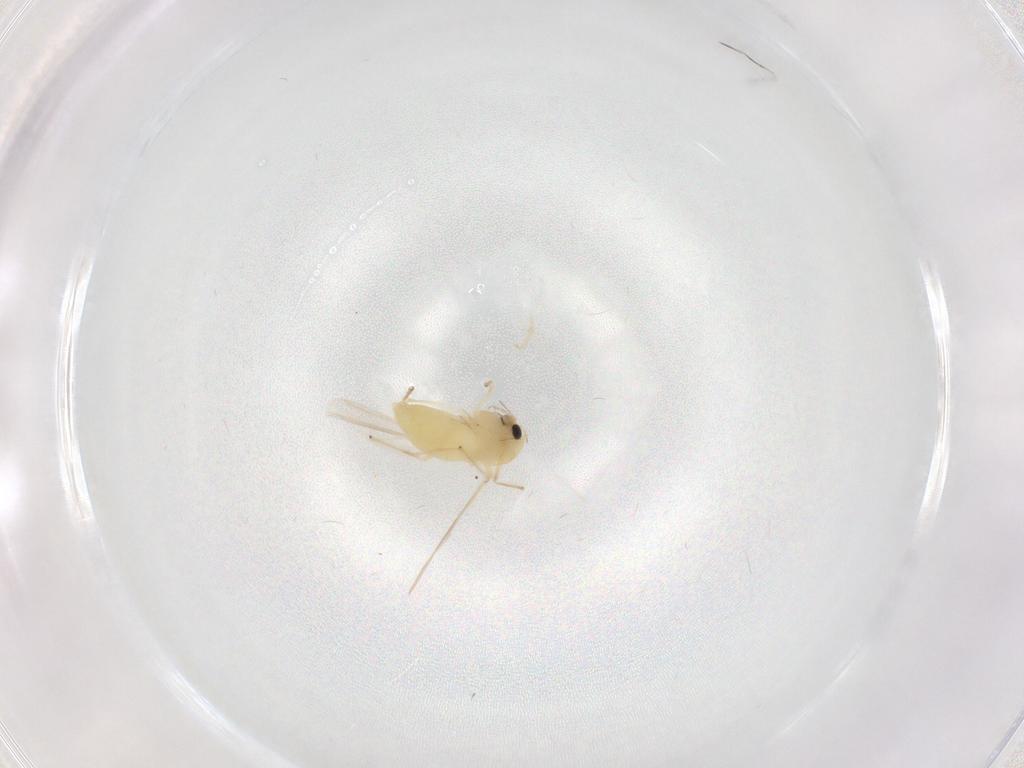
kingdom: Animalia
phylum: Arthropoda
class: Insecta
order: Diptera
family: Psychodidae
